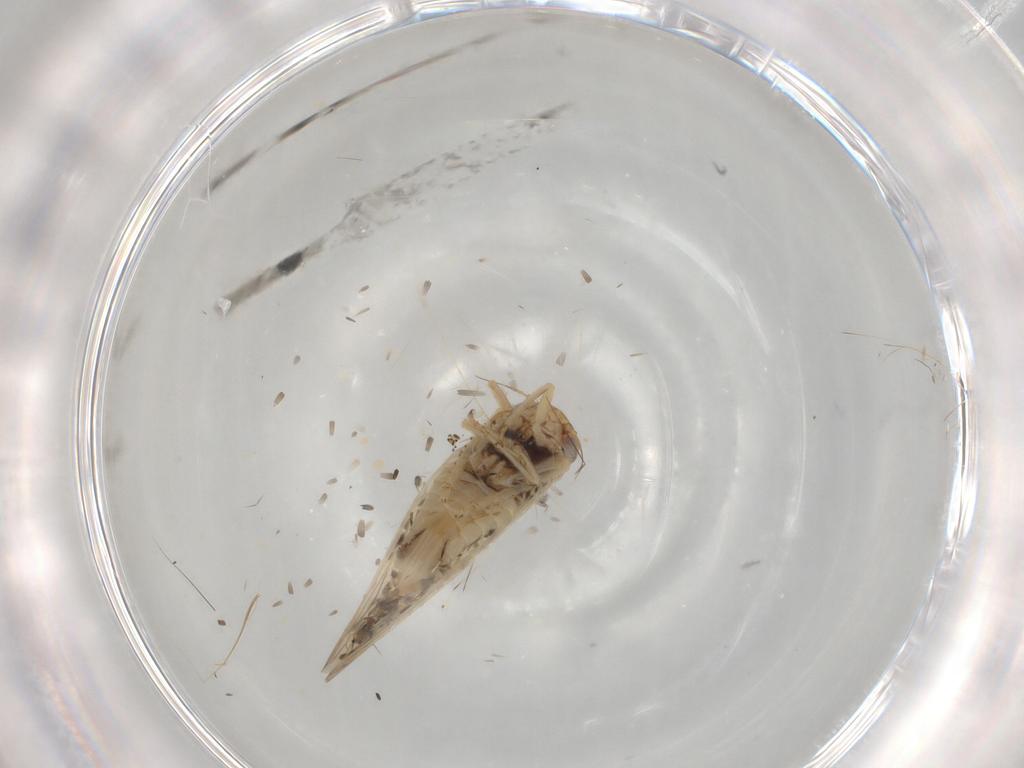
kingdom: Animalia
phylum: Arthropoda
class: Insecta
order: Hemiptera
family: Cicadellidae
